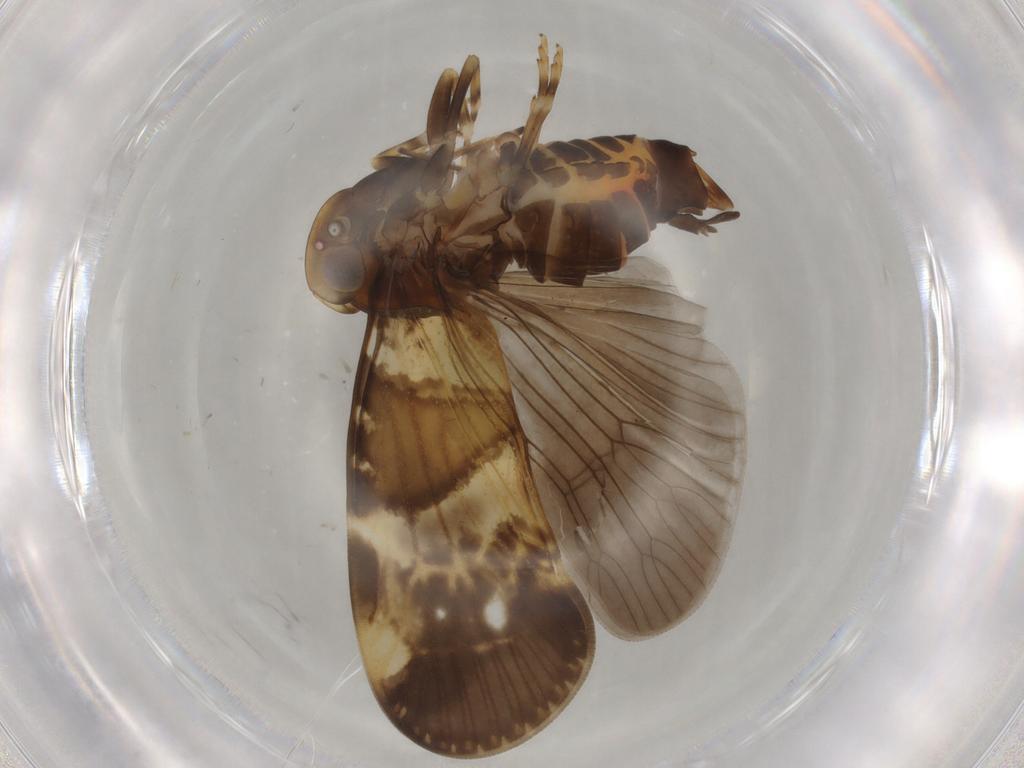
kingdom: Animalia
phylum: Arthropoda
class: Insecta
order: Hemiptera
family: Cixiidae
